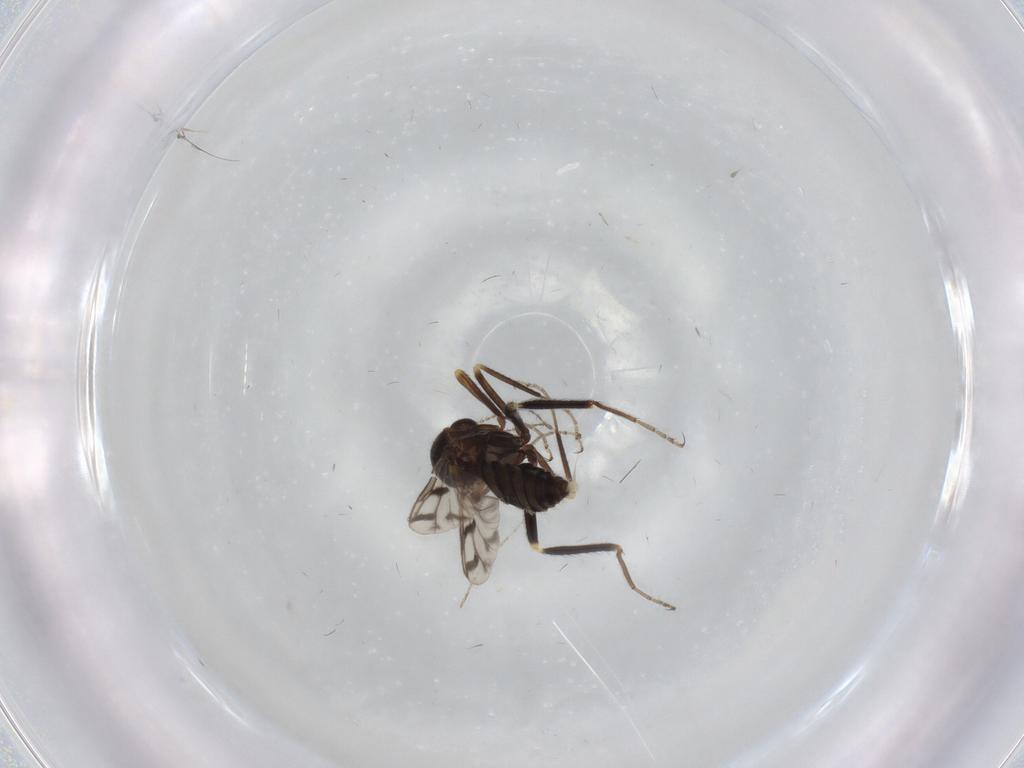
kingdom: Animalia
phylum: Arthropoda
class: Insecta
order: Diptera
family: Ceratopogonidae
